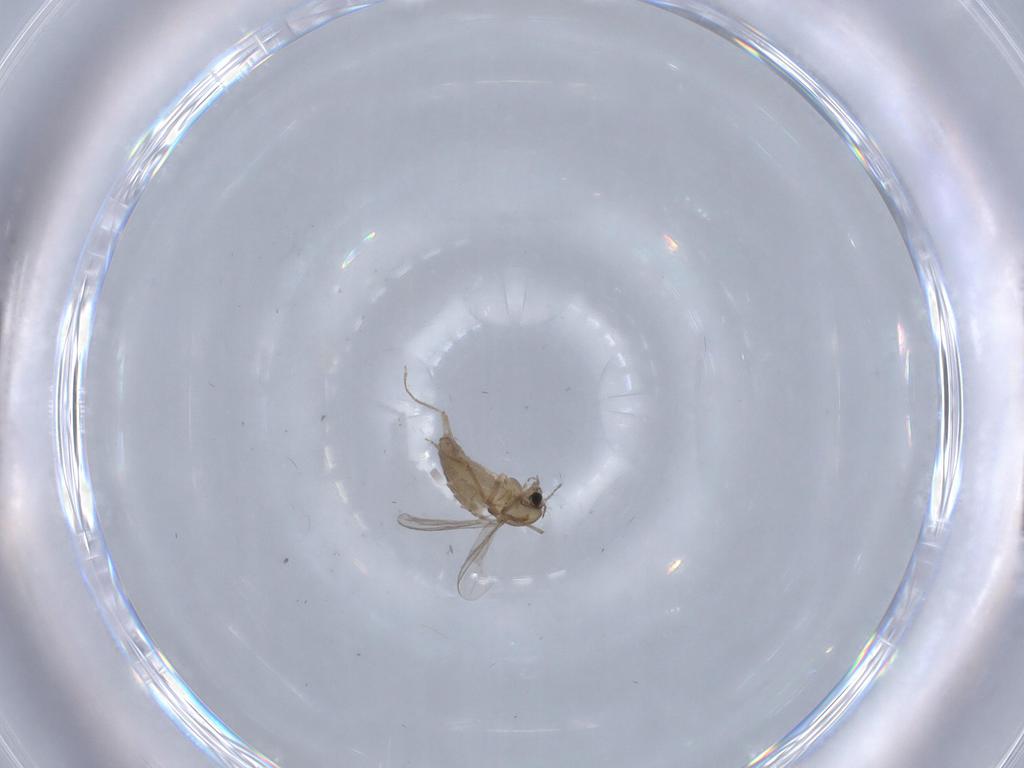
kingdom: Animalia
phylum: Arthropoda
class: Insecta
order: Diptera
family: Chironomidae
